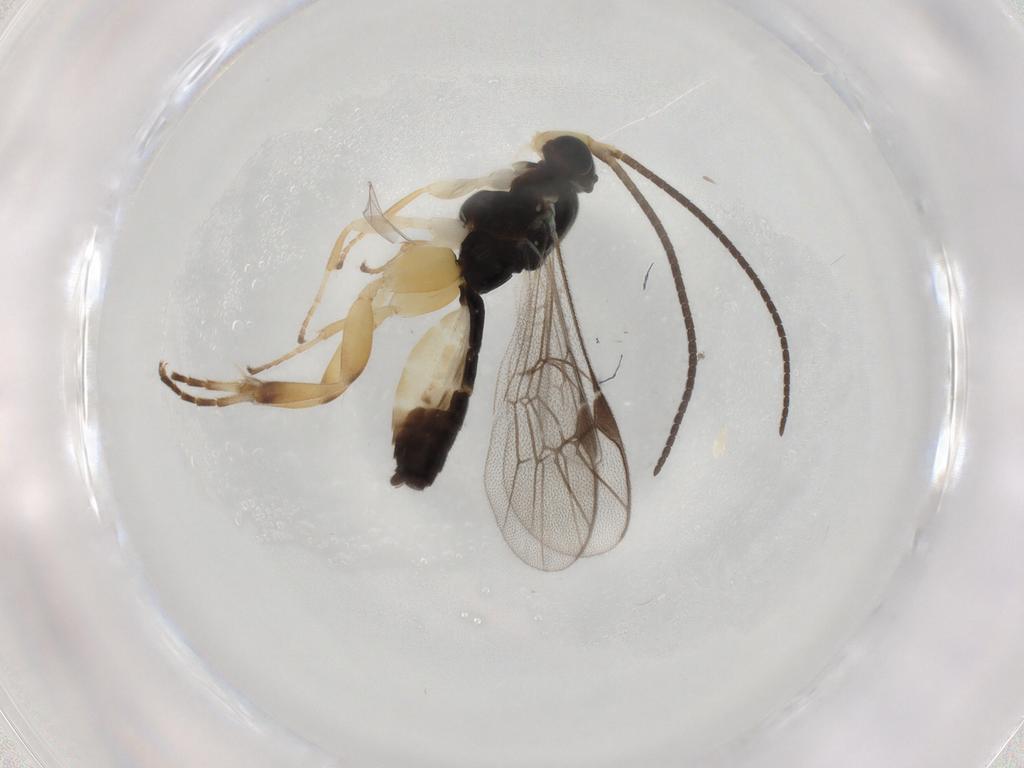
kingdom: Animalia
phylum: Arthropoda
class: Insecta
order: Hymenoptera
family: Ichneumonidae
